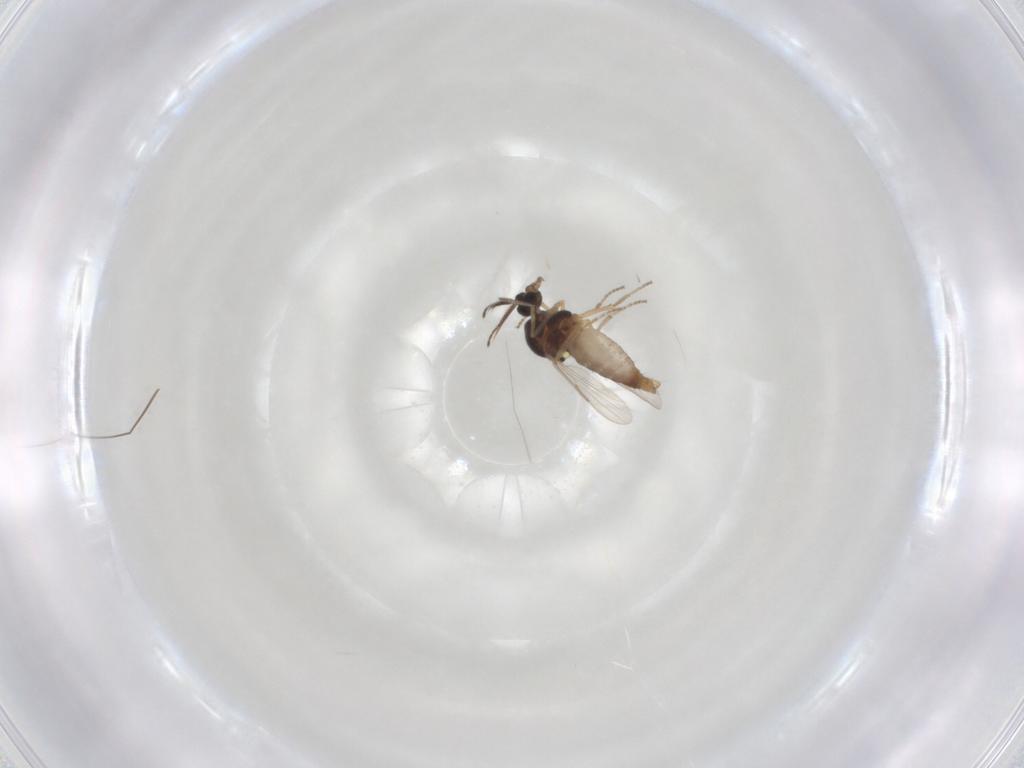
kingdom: Animalia
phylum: Arthropoda
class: Insecta
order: Diptera
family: Ceratopogonidae
